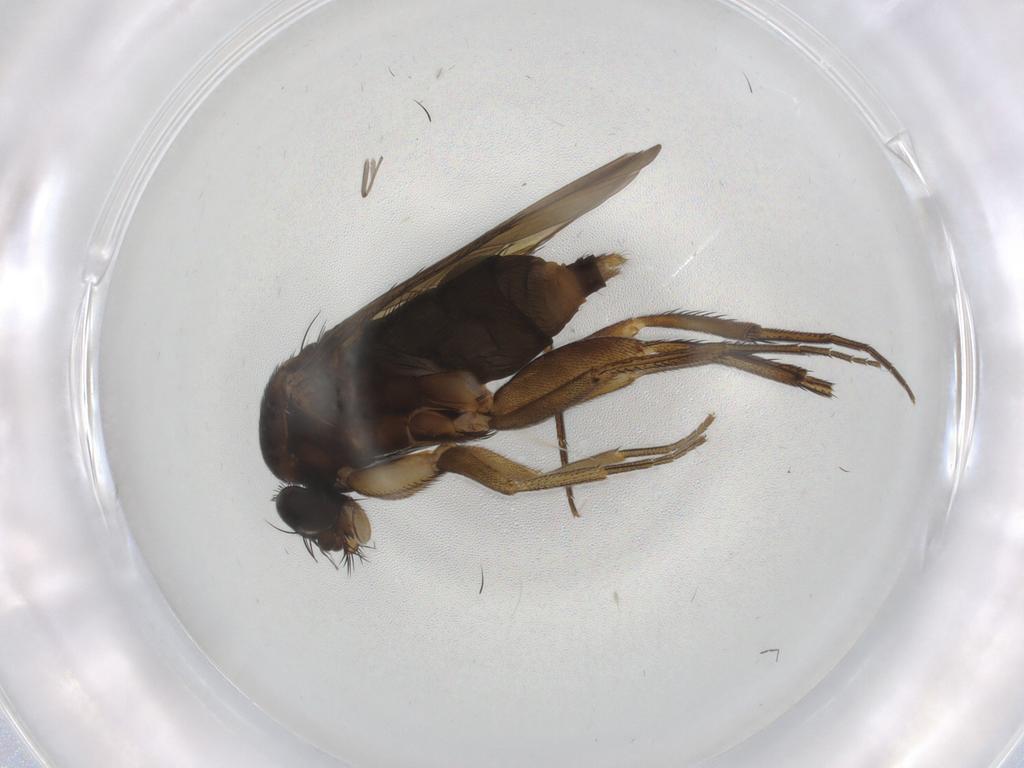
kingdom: Animalia
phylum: Arthropoda
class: Insecta
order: Diptera
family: Phoridae
